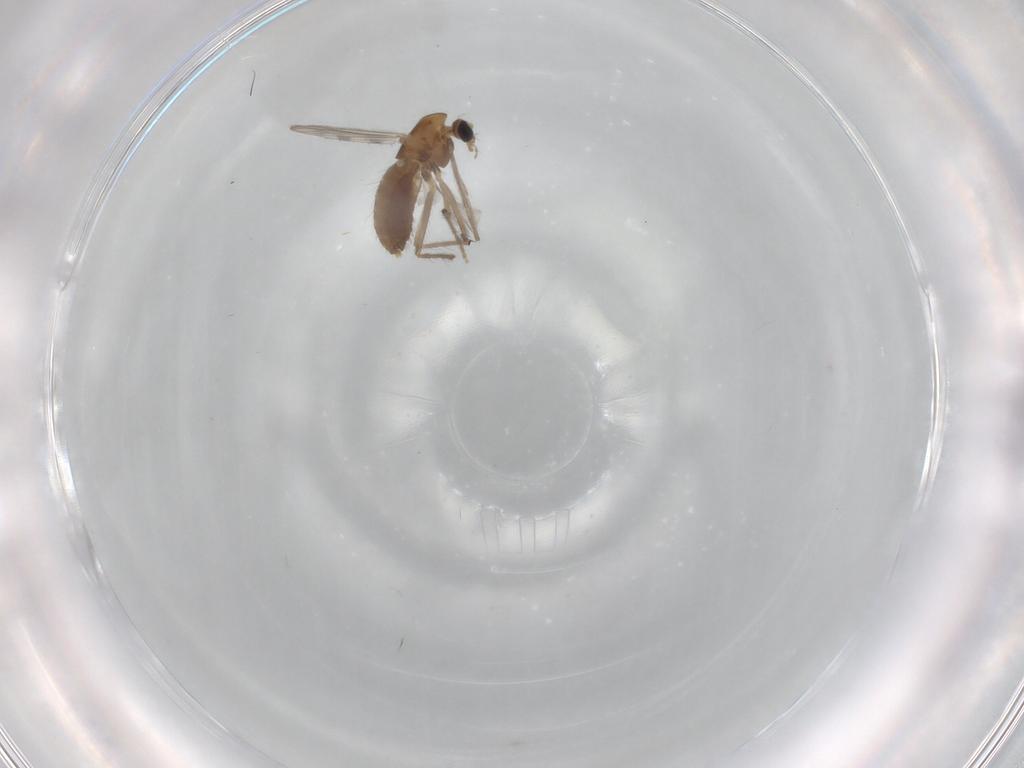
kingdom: Animalia
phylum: Arthropoda
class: Insecta
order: Diptera
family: Chironomidae
